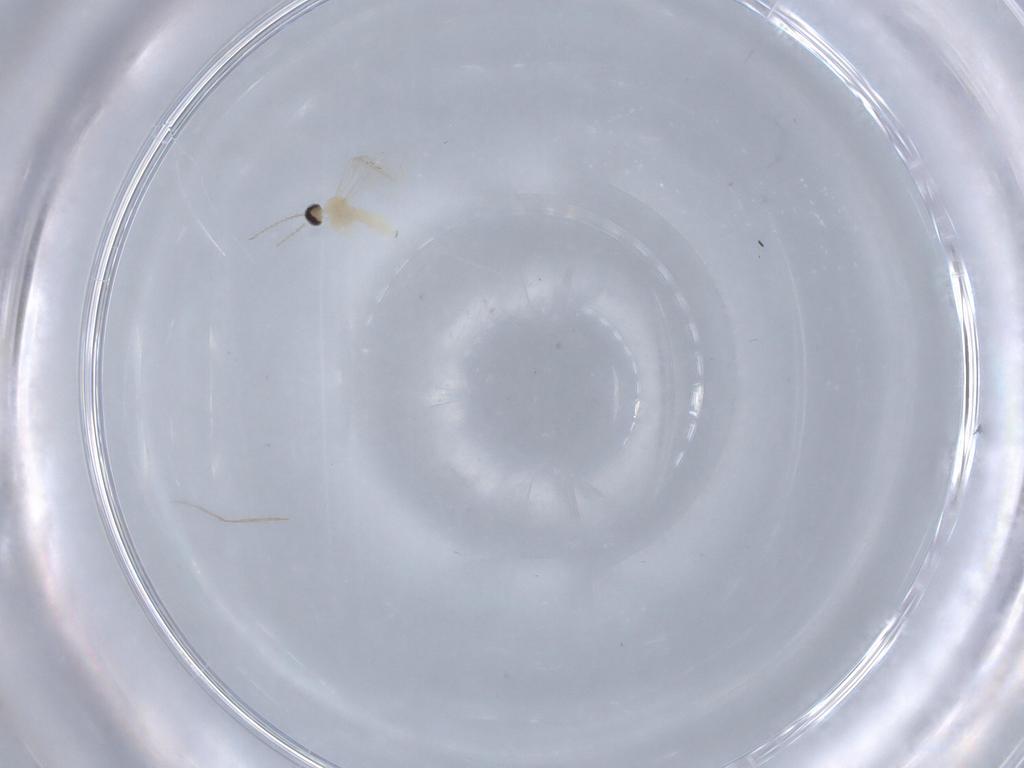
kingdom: Animalia
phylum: Arthropoda
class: Insecta
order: Diptera
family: Cecidomyiidae
